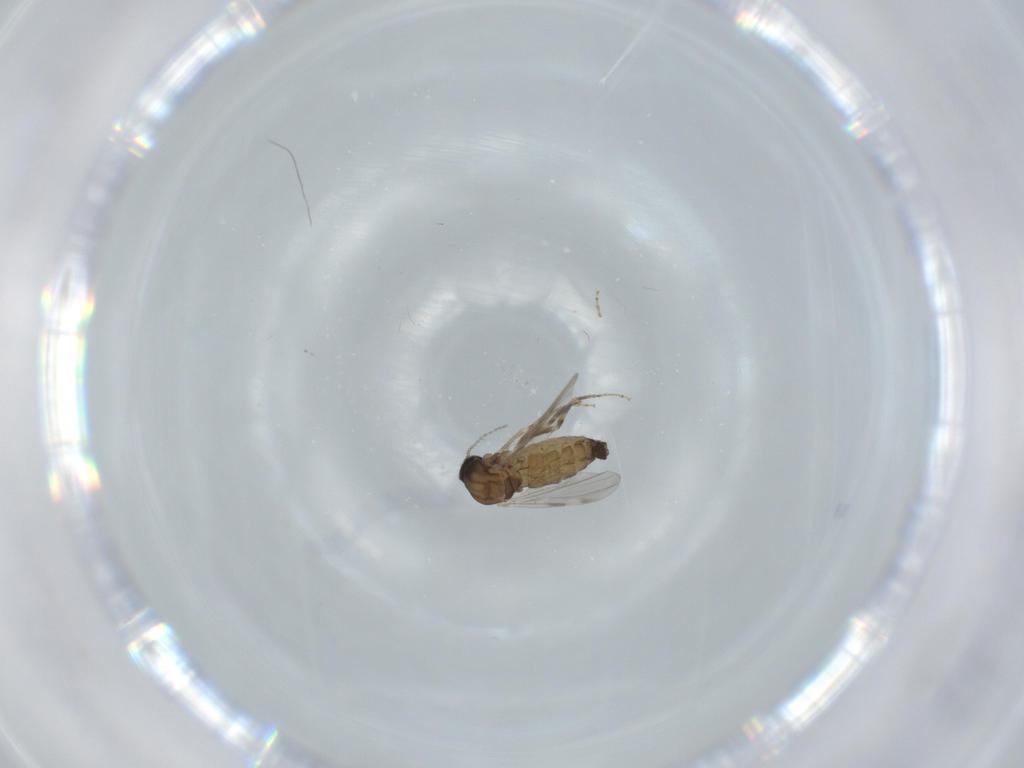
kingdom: Animalia
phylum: Arthropoda
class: Insecta
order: Diptera
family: Ceratopogonidae
